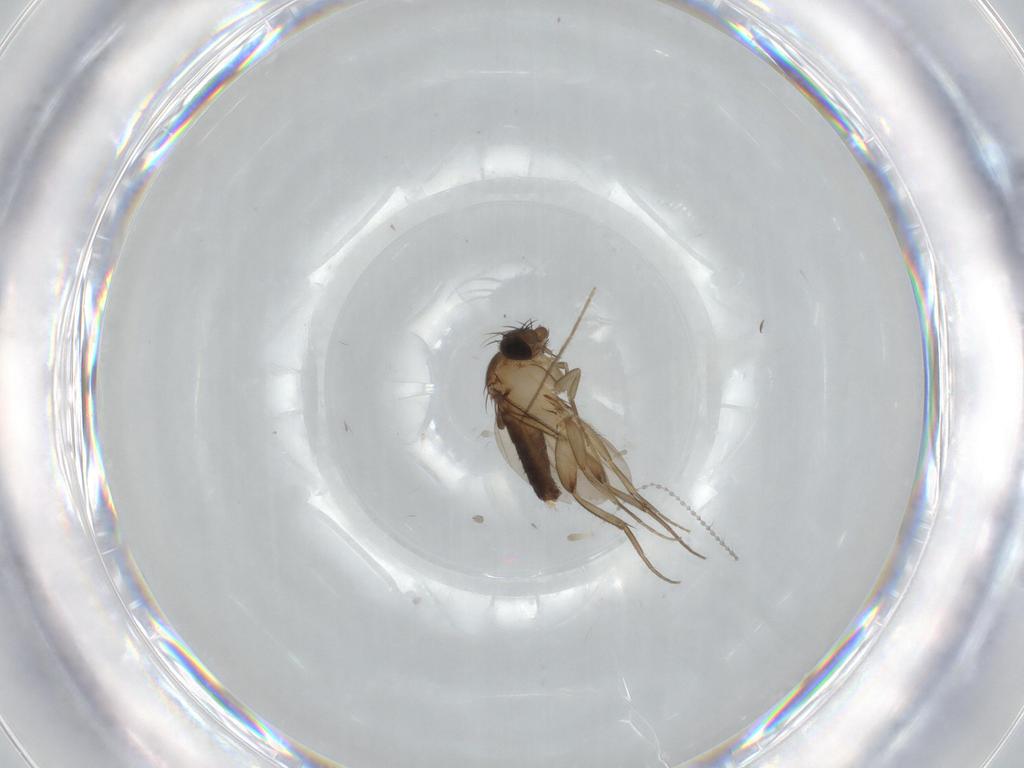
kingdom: Animalia
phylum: Arthropoda
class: Insecta
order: Diptera
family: Phoridae
